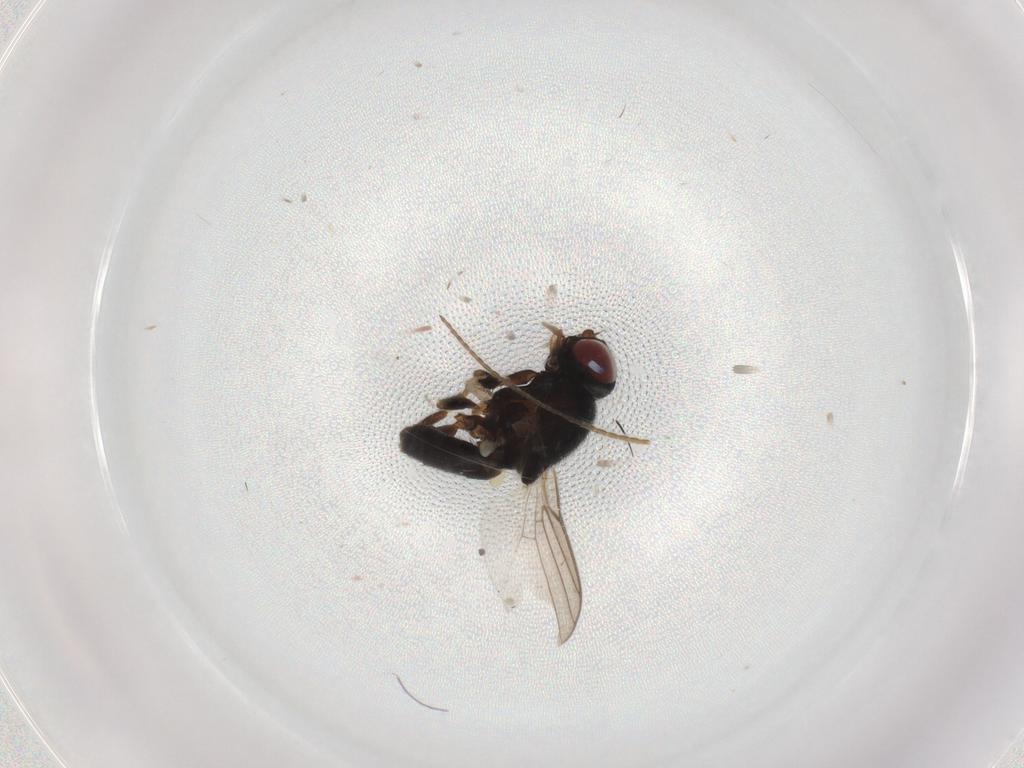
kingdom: Animalia
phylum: Arthropoda
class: Insecta
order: Diptera
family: Chloropidae
